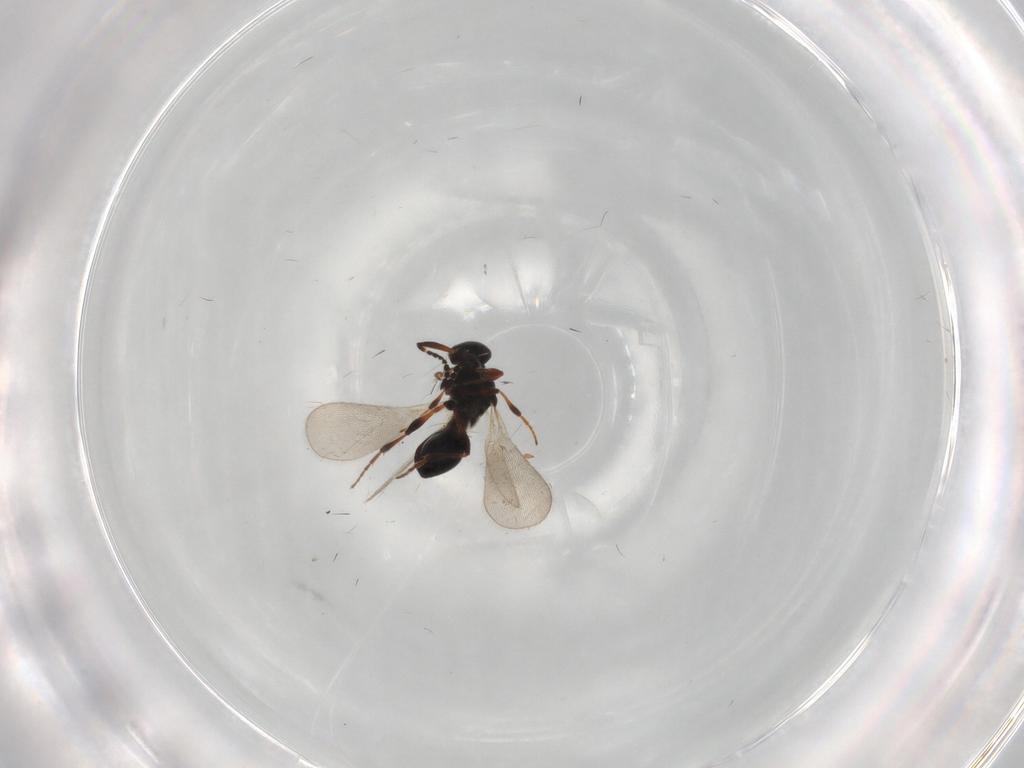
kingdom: Animalia
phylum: Arthropoda
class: Insecta
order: Hymenoptera
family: Platygastridae
